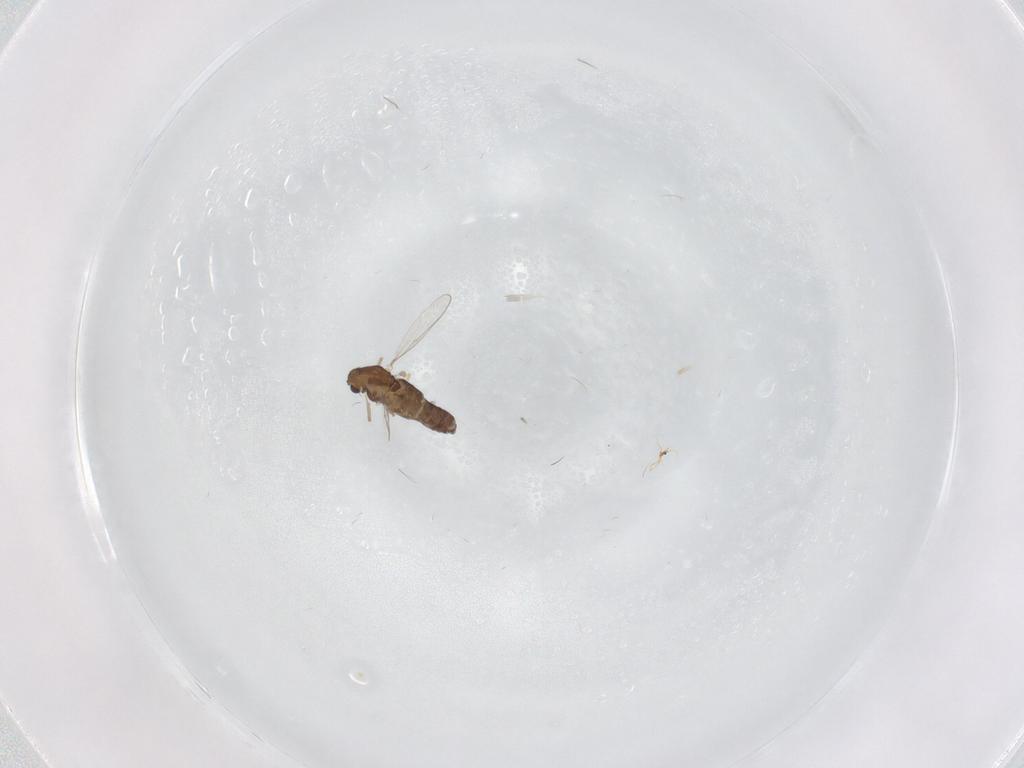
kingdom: Animalia
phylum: Arthropoda
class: Insecta
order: Diptera
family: Chironomidae
